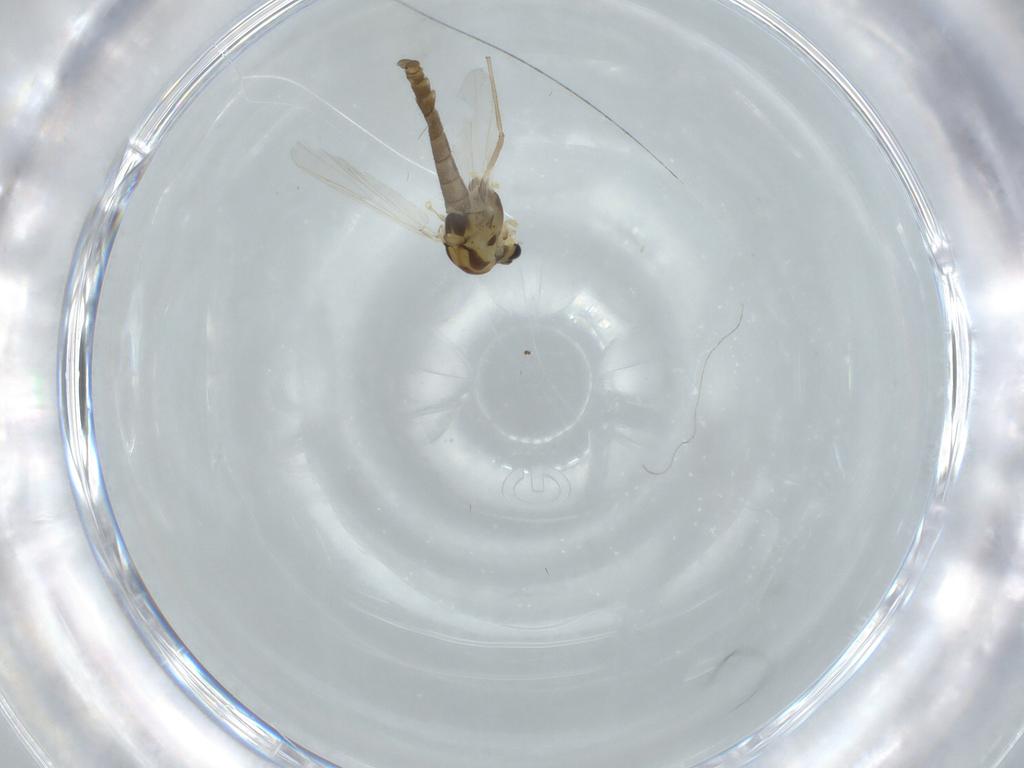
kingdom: Animalia
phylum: Arthropoda
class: Insecta
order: Diptera
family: Chironomidae
